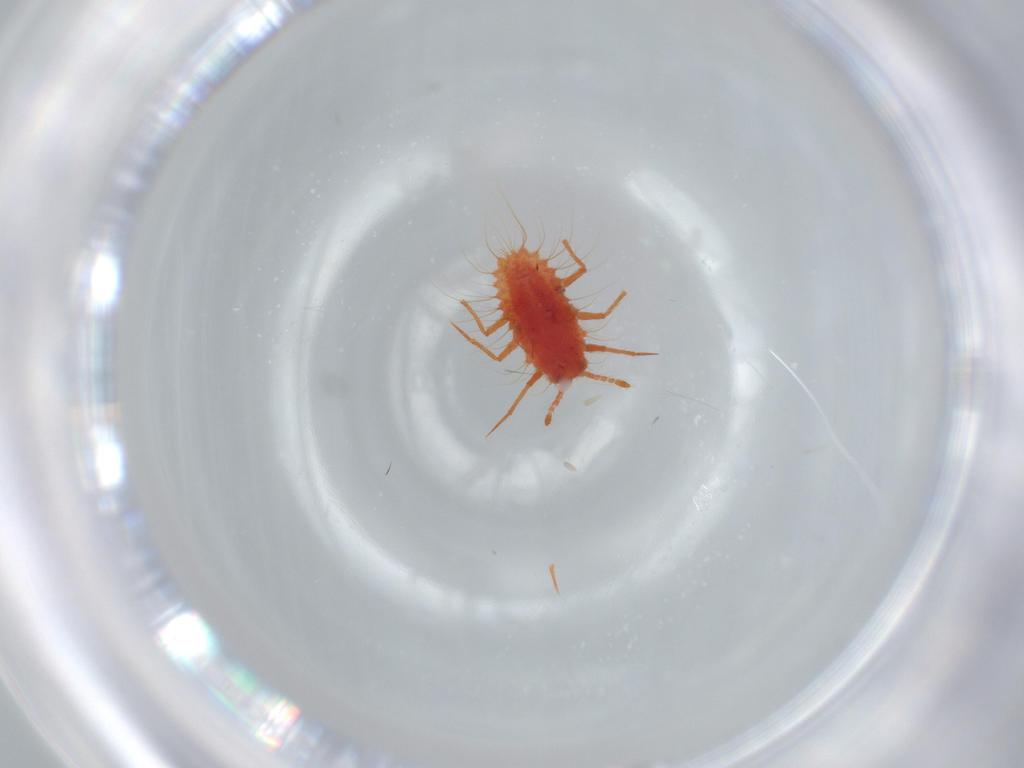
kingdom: Animalia
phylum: Arthropoda
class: Insecta
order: Hemiptera
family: Monophlebidae
